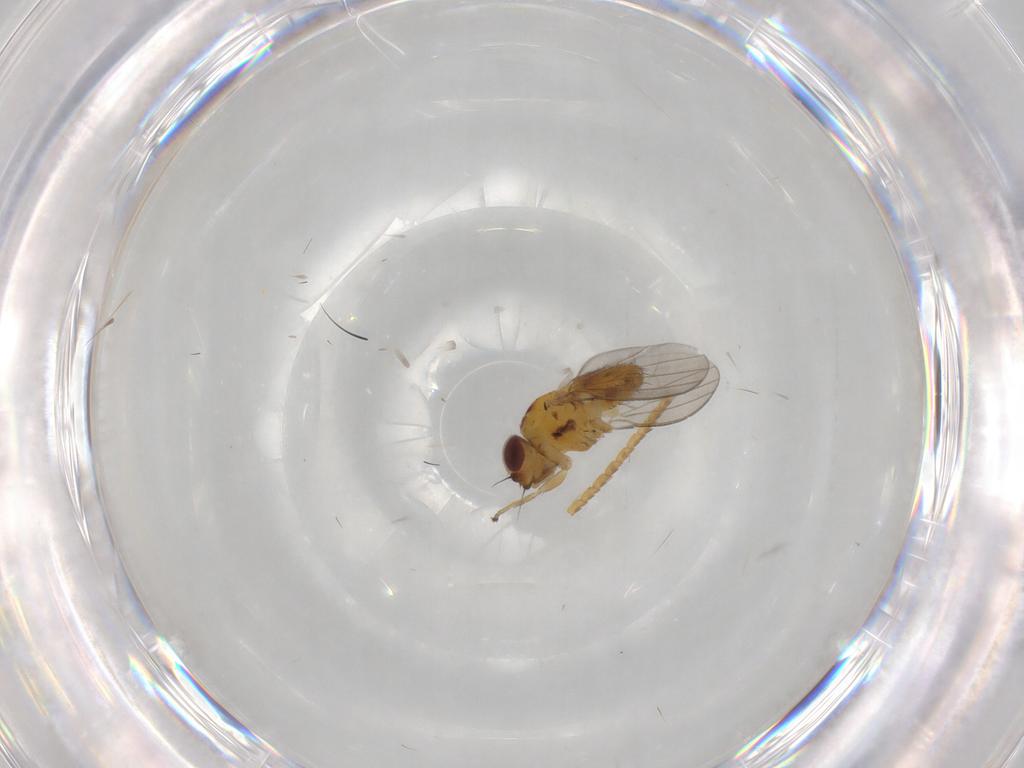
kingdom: Animalia
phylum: Arthropoda
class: Insecta
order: Diptera
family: Milichiidae
